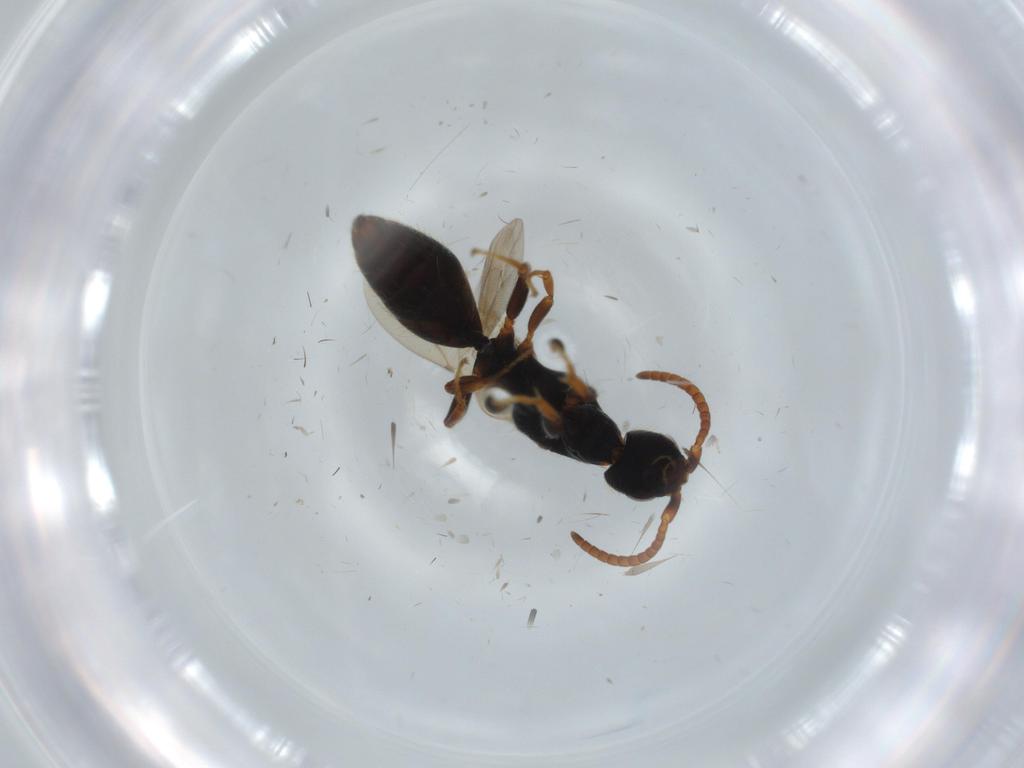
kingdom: Animalia
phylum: Arthropoda
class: Insecta
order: Hymenoptera
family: Bethylidae
